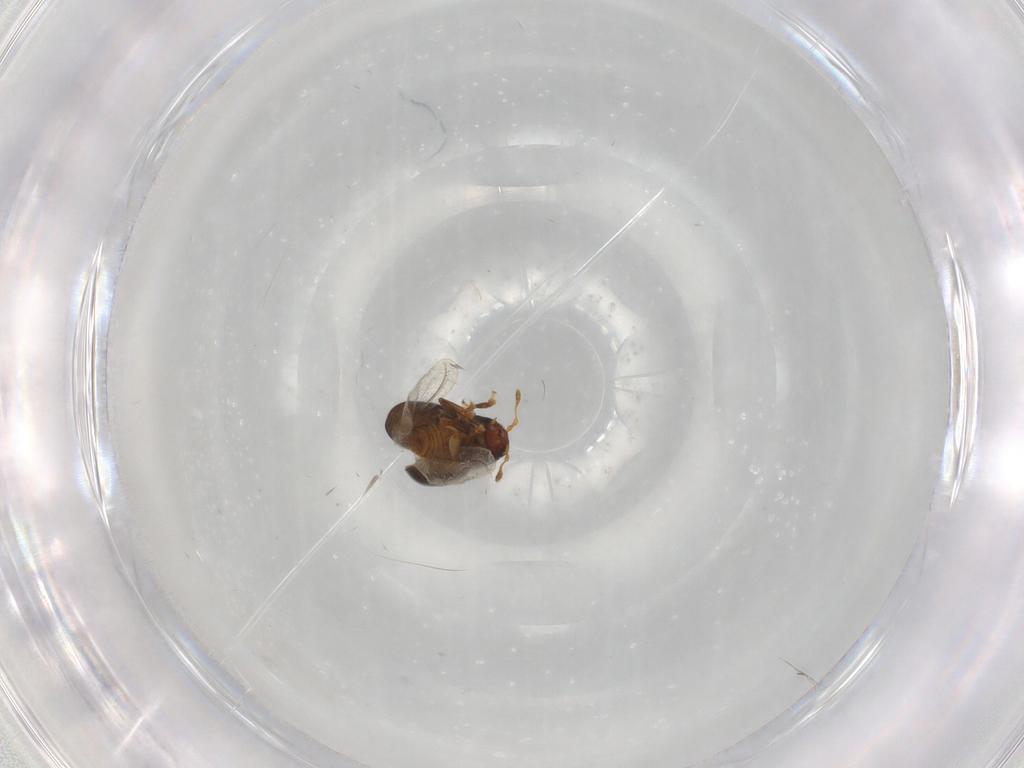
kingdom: Animalia
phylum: Arthropoda
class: Insecta
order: Coleoptera
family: Anthribidae
